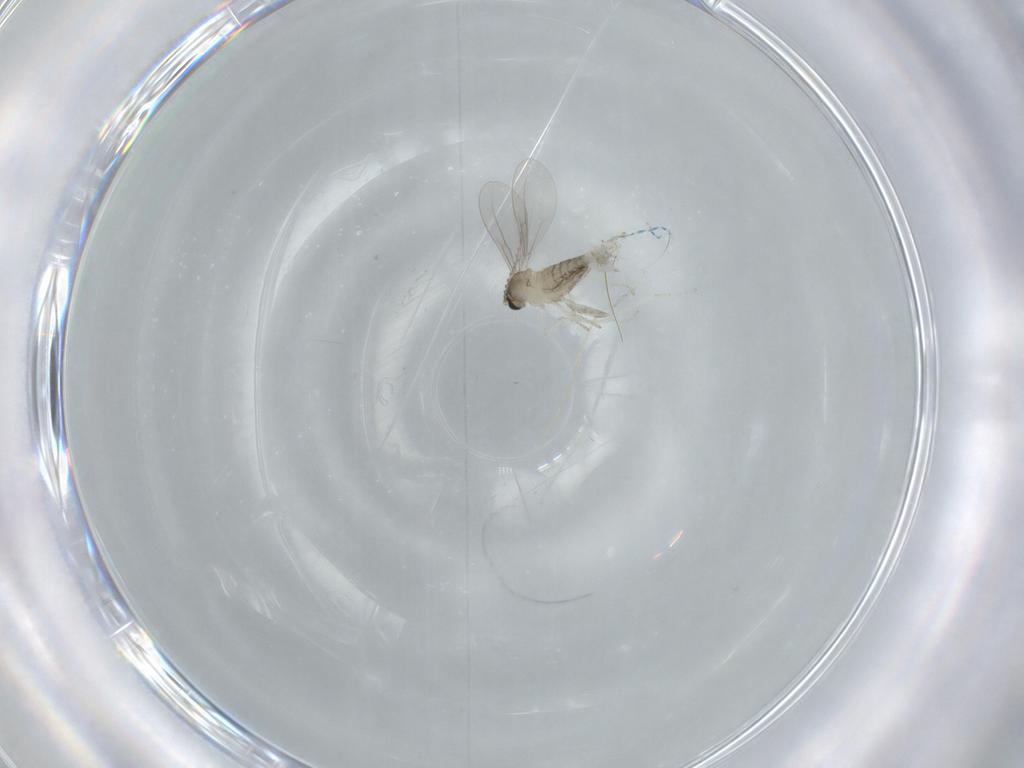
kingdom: Animalia
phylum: Arthropoda
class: Insecta
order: Diptera
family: Cecidomyiidae
